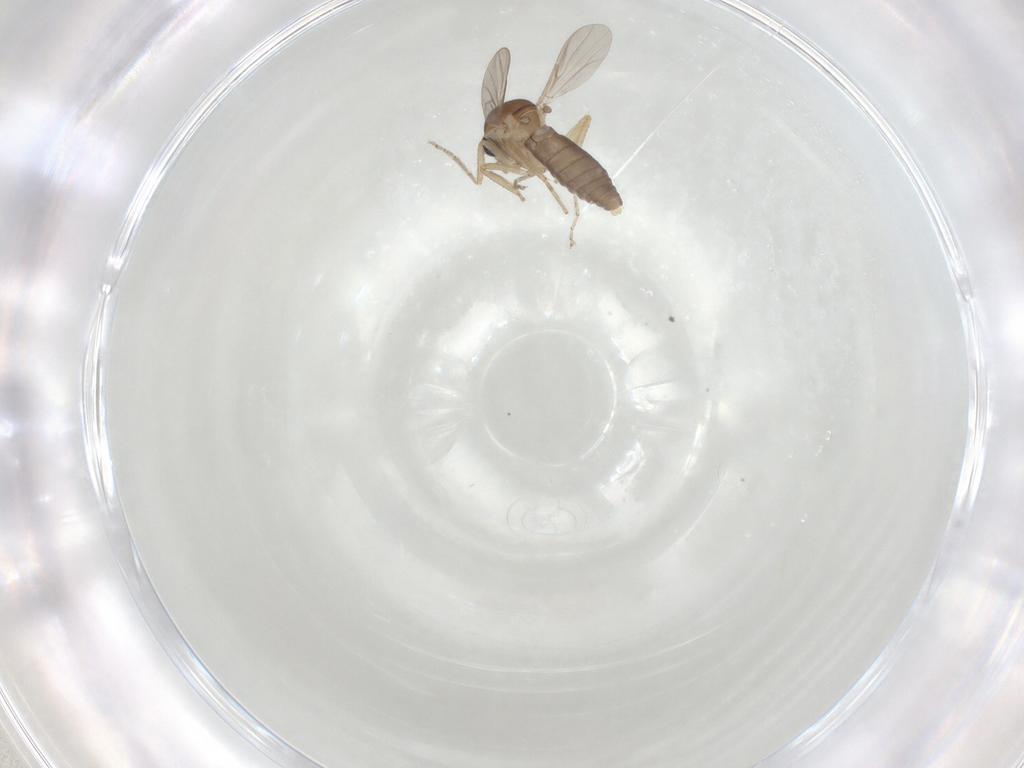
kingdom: Animalia
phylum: Arthropoda
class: Insecta
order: Diptera
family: Ceratopogonidae
